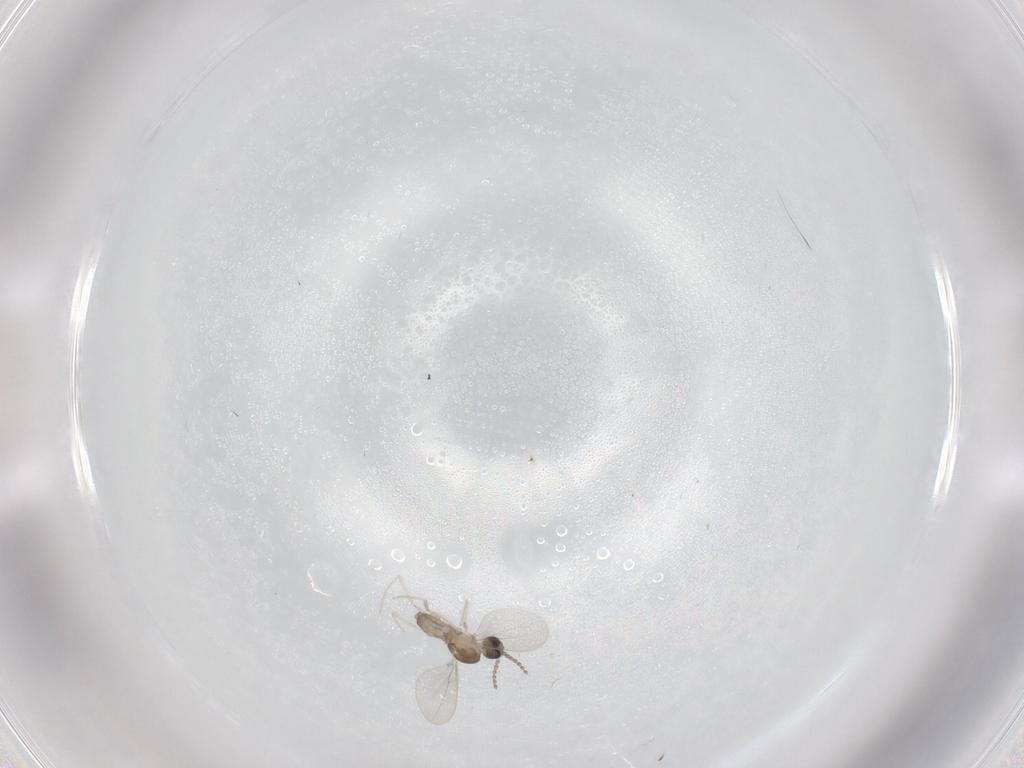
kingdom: Animalia
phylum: Arthropoda
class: Insecta
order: Diptera
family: Cecidomyiidae
